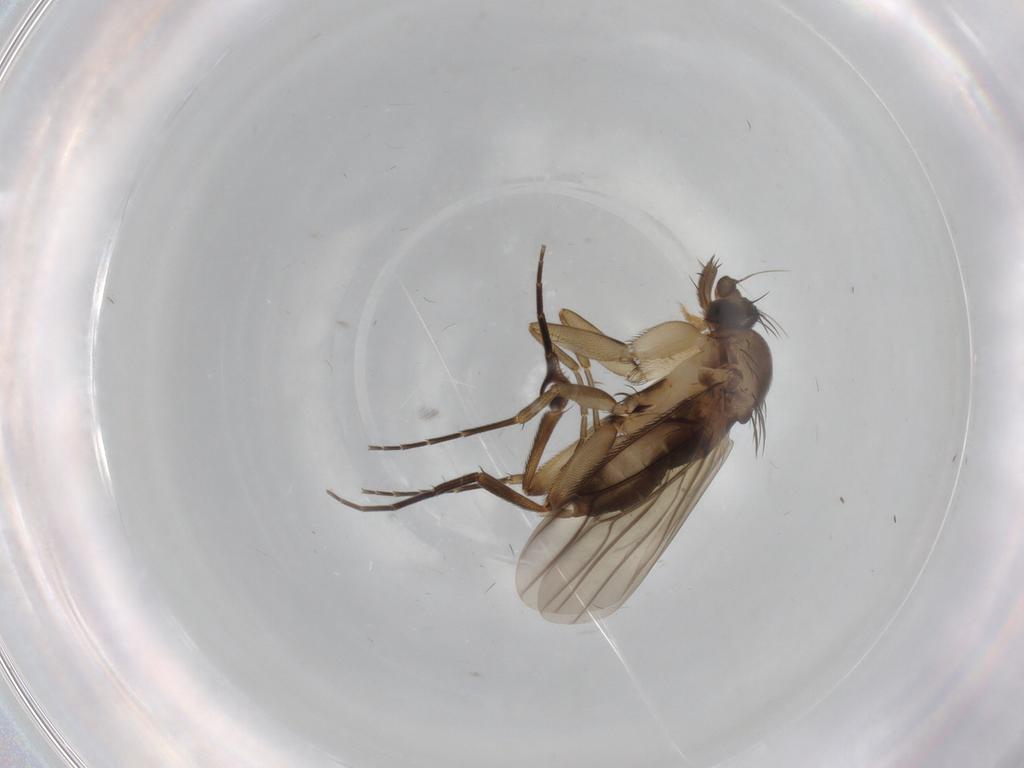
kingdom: Animalia
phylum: Arthropoda
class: Insecta
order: Diptera
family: Phoridae
